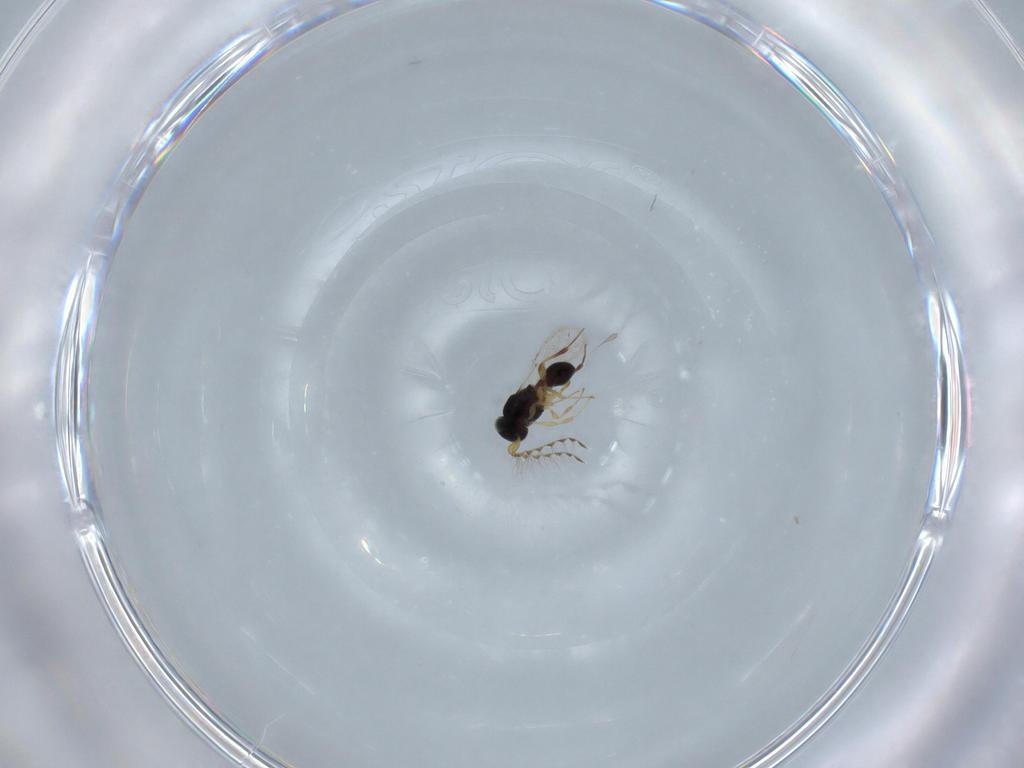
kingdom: Animalia
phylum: Arthropoda
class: Insecta
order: Hymenoptera
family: Platygastridae
